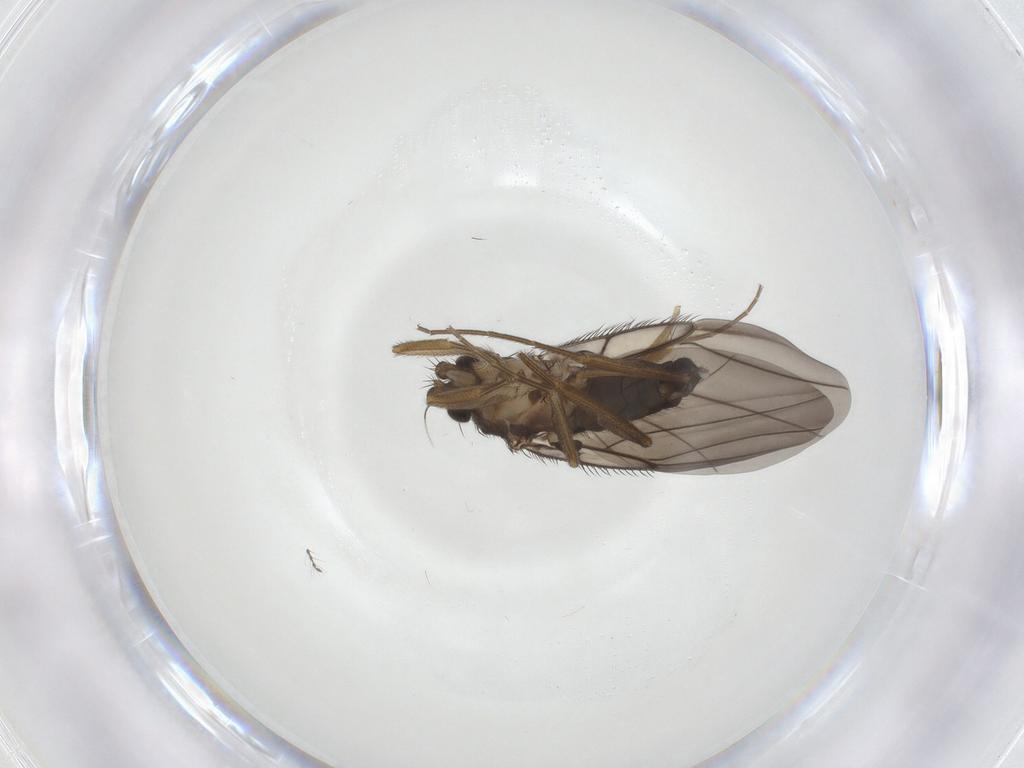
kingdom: Animalia
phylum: Arthropoda
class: Insecta
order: Diptera
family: Phoridae
